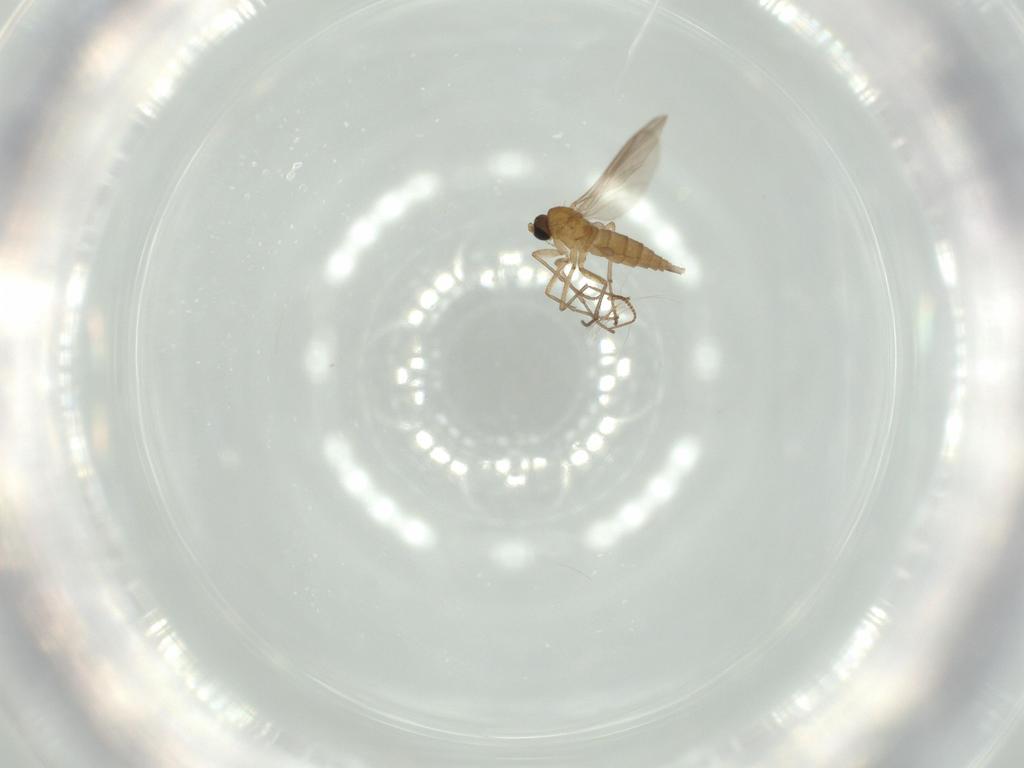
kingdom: Animalia
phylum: Arthropoda
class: Insecta
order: Diptera
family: Chironomidae
